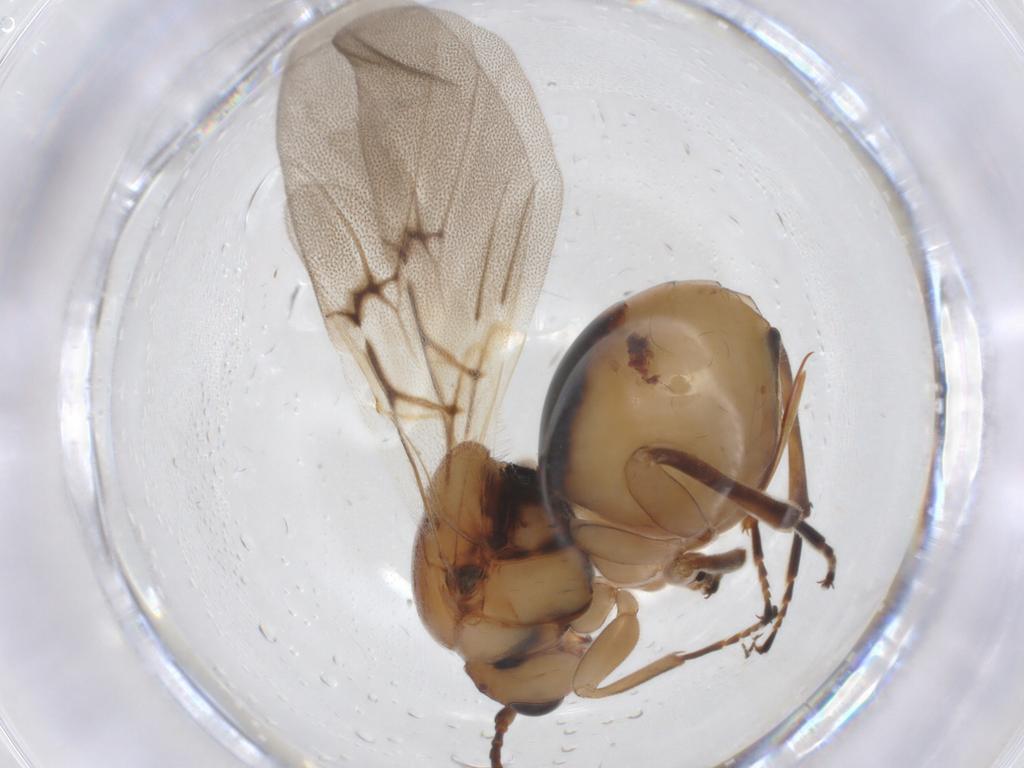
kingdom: Animalia
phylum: Arthropoda
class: Insecta
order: Hymenoptera
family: Cynipidae
